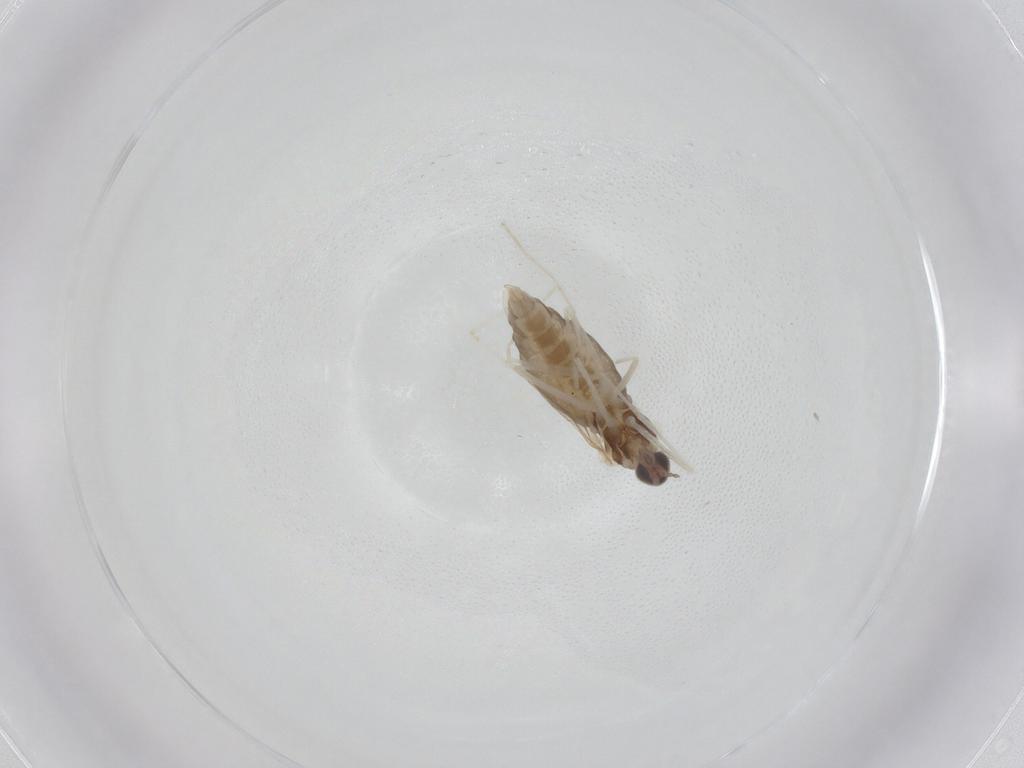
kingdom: Animalia
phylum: Arthropoda
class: Insecta
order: Diptera
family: Cecidomyiidae
